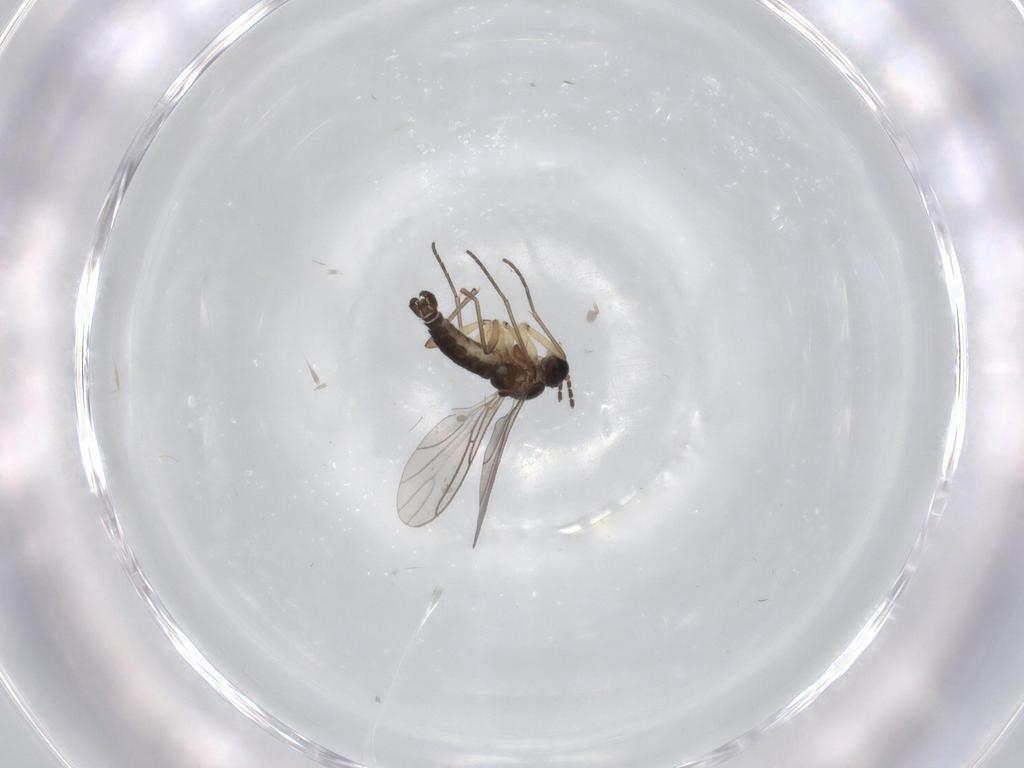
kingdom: Animalia
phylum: Arthropoda
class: Insecta
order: Diptera
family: Sciaridae
